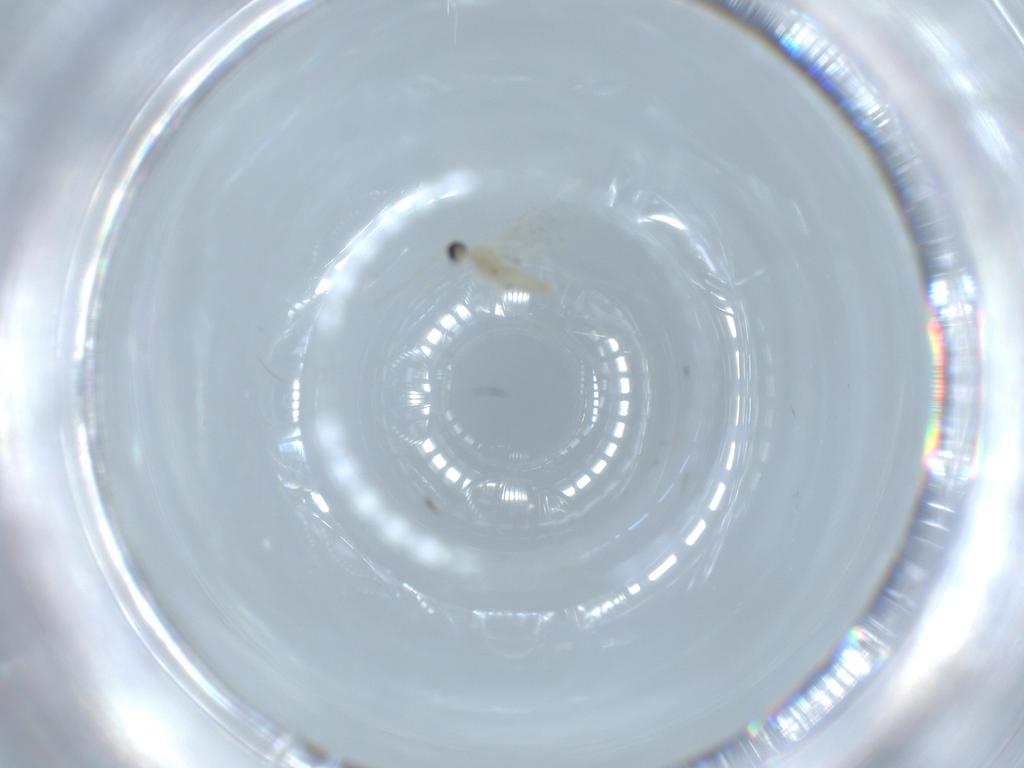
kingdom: Animalia
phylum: Arthropoda
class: Insecta
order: Diptera
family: Cecidomyiidae
